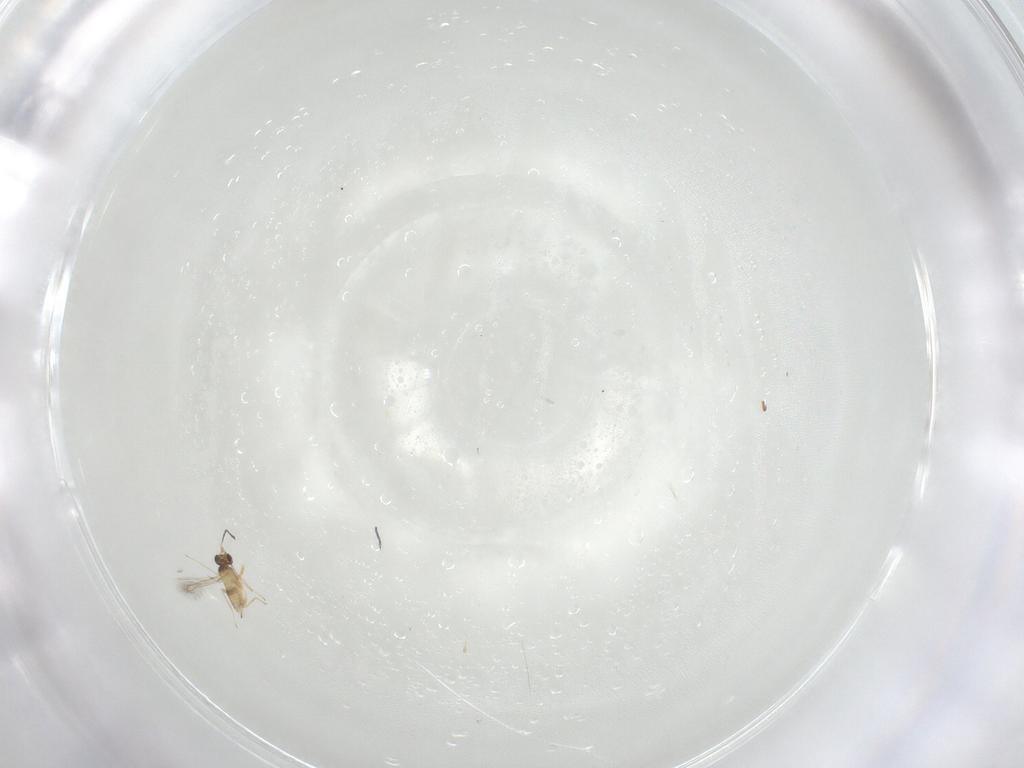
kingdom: Animalia
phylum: Arthropoda
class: Insecta
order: Hymenoptera
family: Mymaridae
